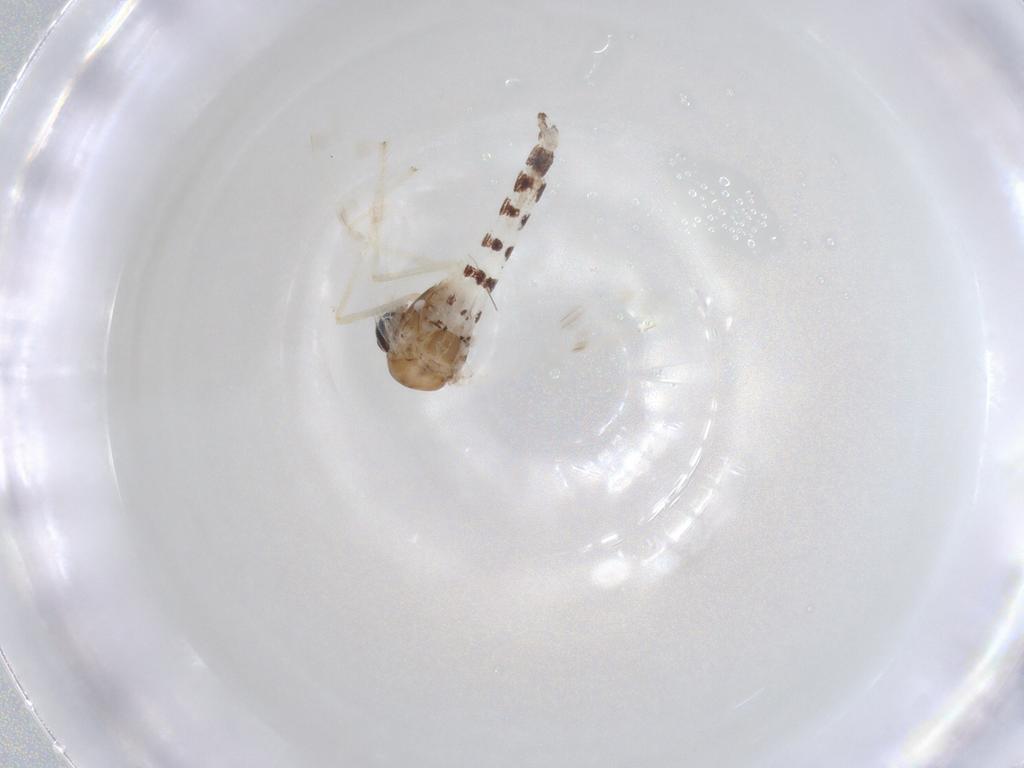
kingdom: Animalia
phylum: Arthropoda
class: Insecta
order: Diptera
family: Chironomidae
